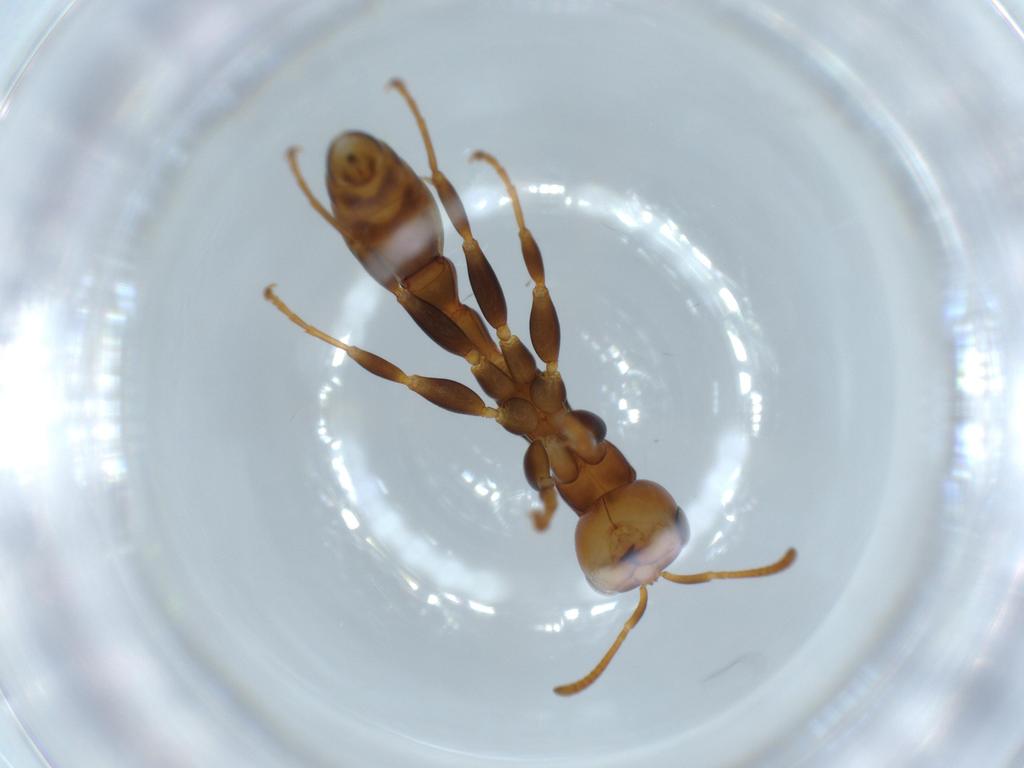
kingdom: Animalia
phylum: Arthropoda
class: Insecta
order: Hymenoptera
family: Formicidae
